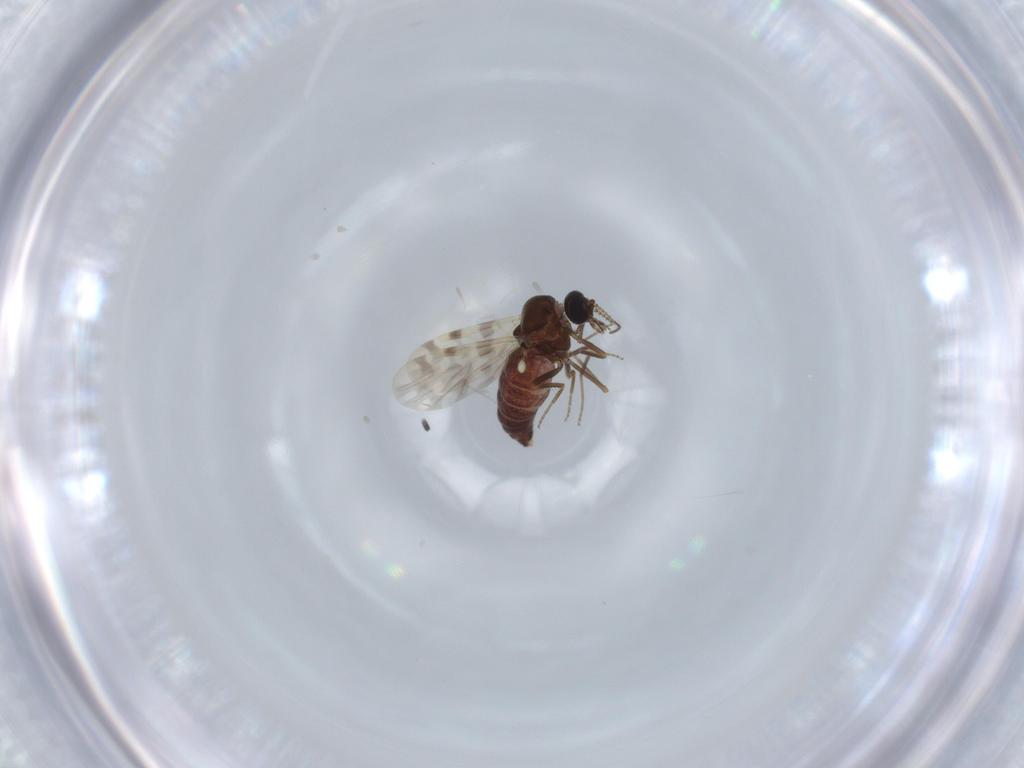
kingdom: Animalia
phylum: Arthropoda
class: Insecta
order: Diptera
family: Ceratopogonidae
